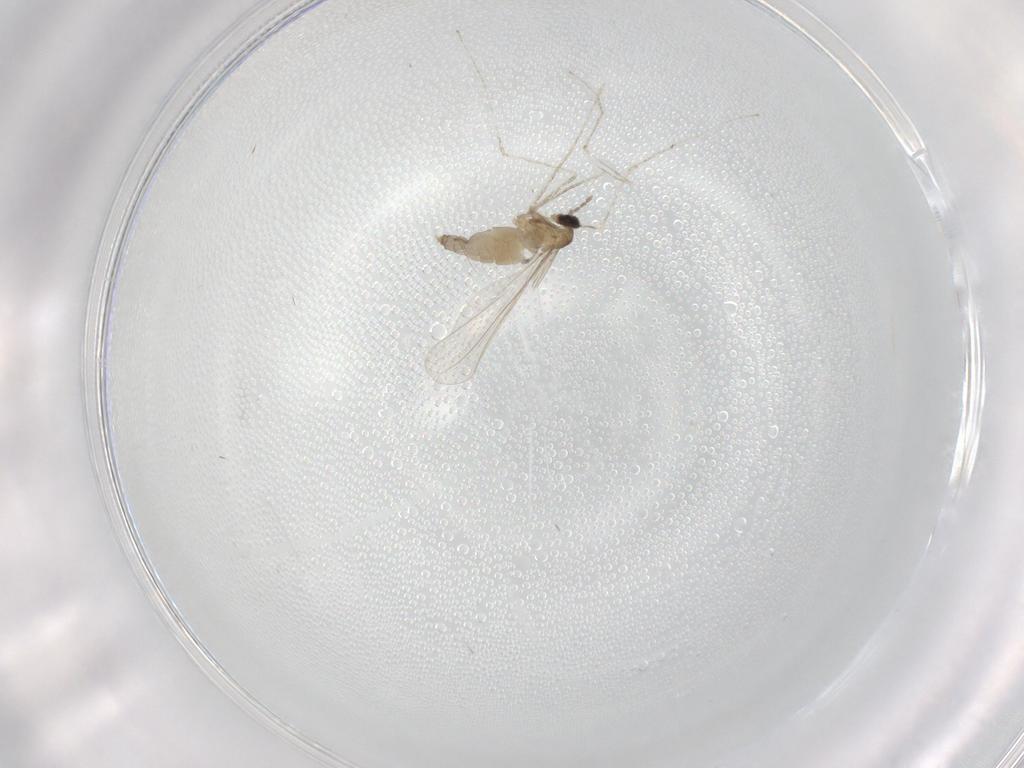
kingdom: Animalia
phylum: Arthropoda
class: Insecta
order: Diptera
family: Cecidomyiidae
